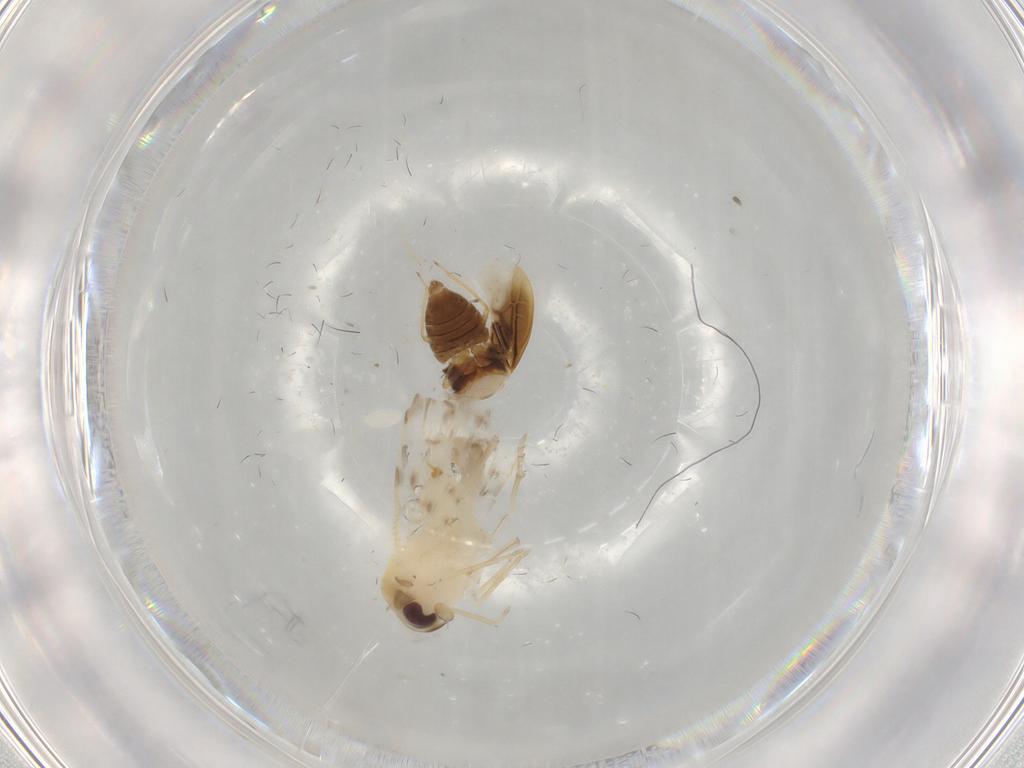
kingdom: Animalia
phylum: Arthropoda
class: Insecta
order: Hemiptera
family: Derbidae
